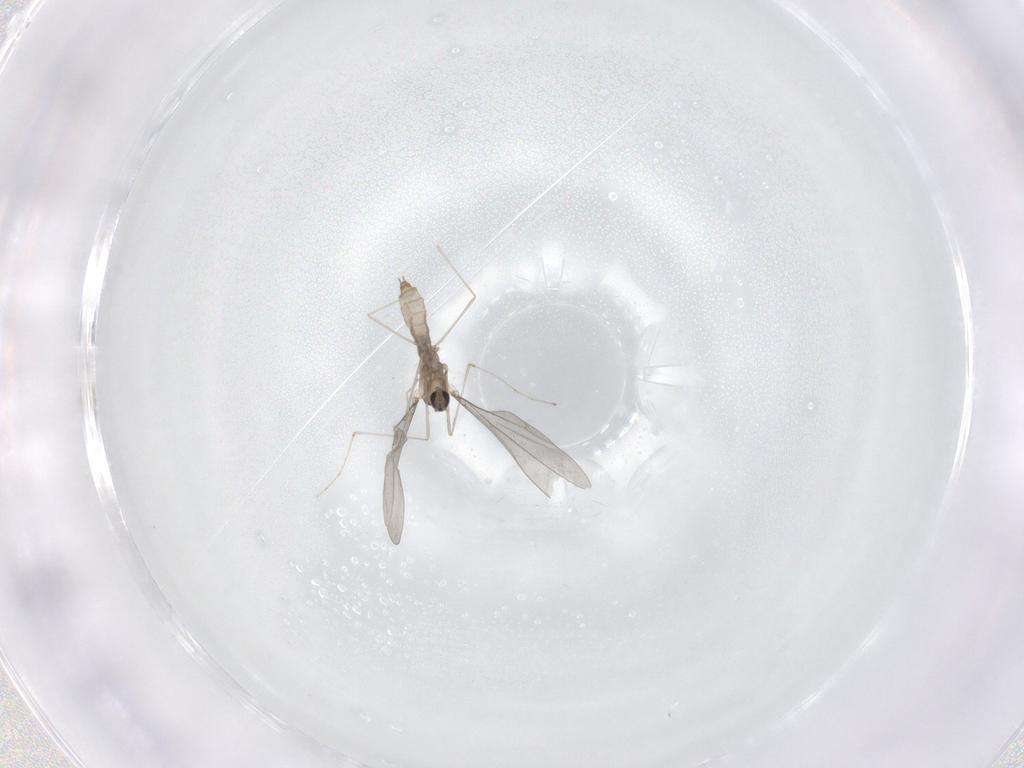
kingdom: Animalia
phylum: Arthropoda
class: Insecta
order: Diptera
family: Cecidomyiidae
